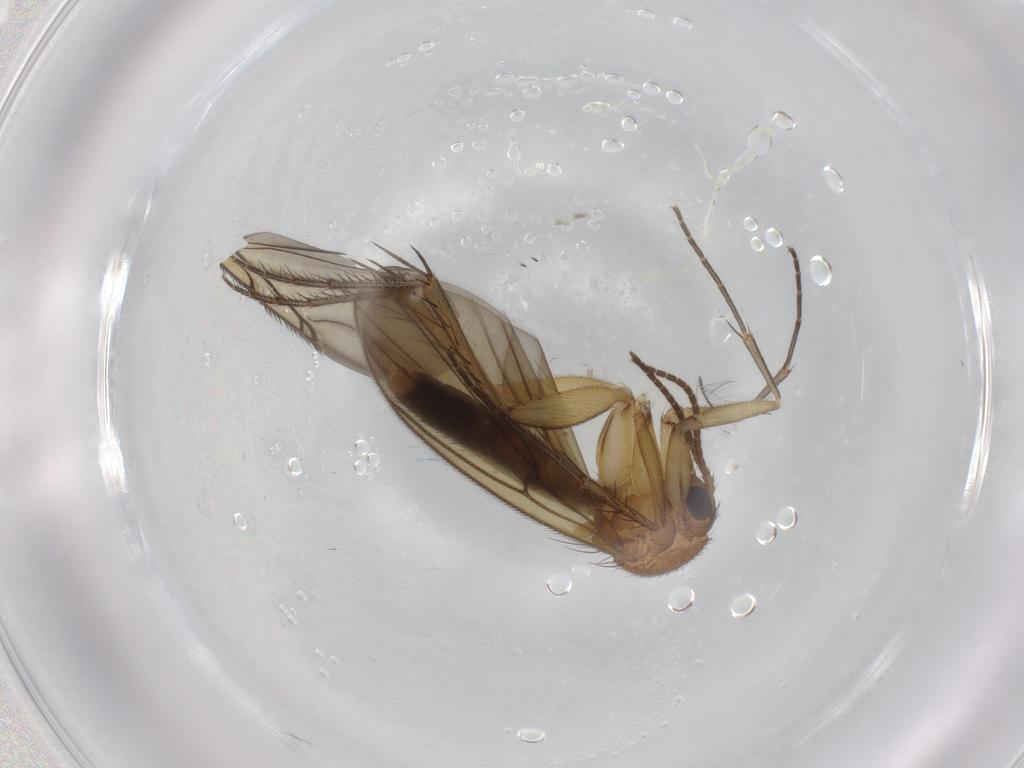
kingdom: Animalia
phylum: Arthropoda
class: Insecta
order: Diptera
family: Chironomidae
